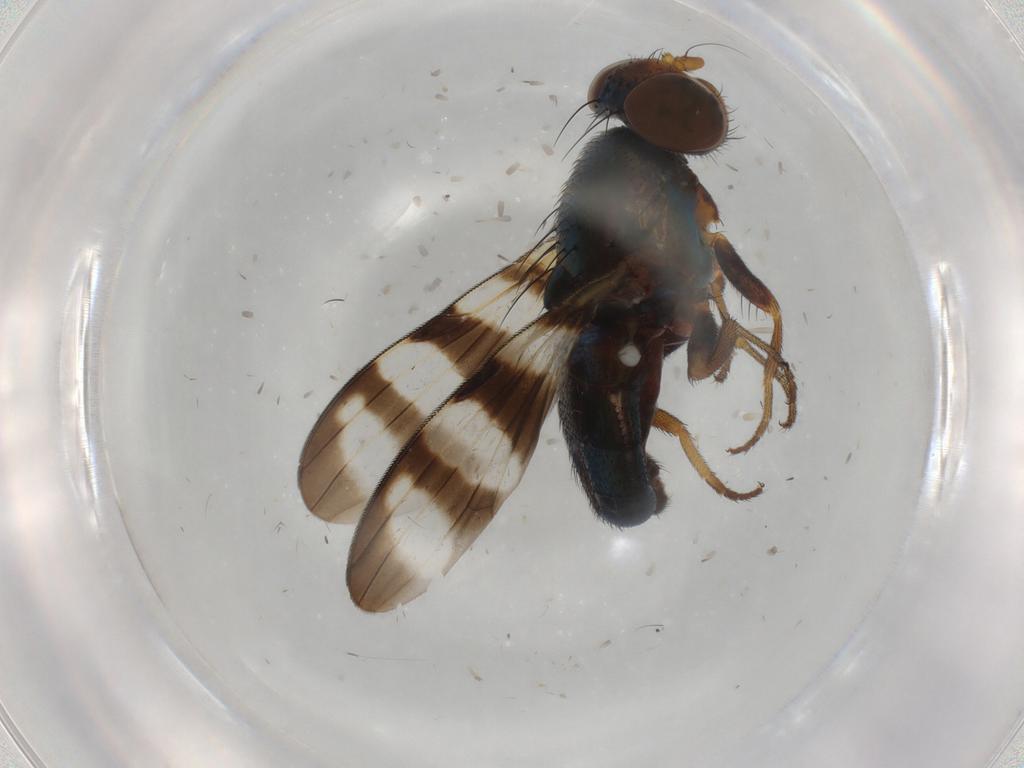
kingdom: Animalia
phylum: Arthropoda
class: Insecta
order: Diptera
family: Ulidiidae
